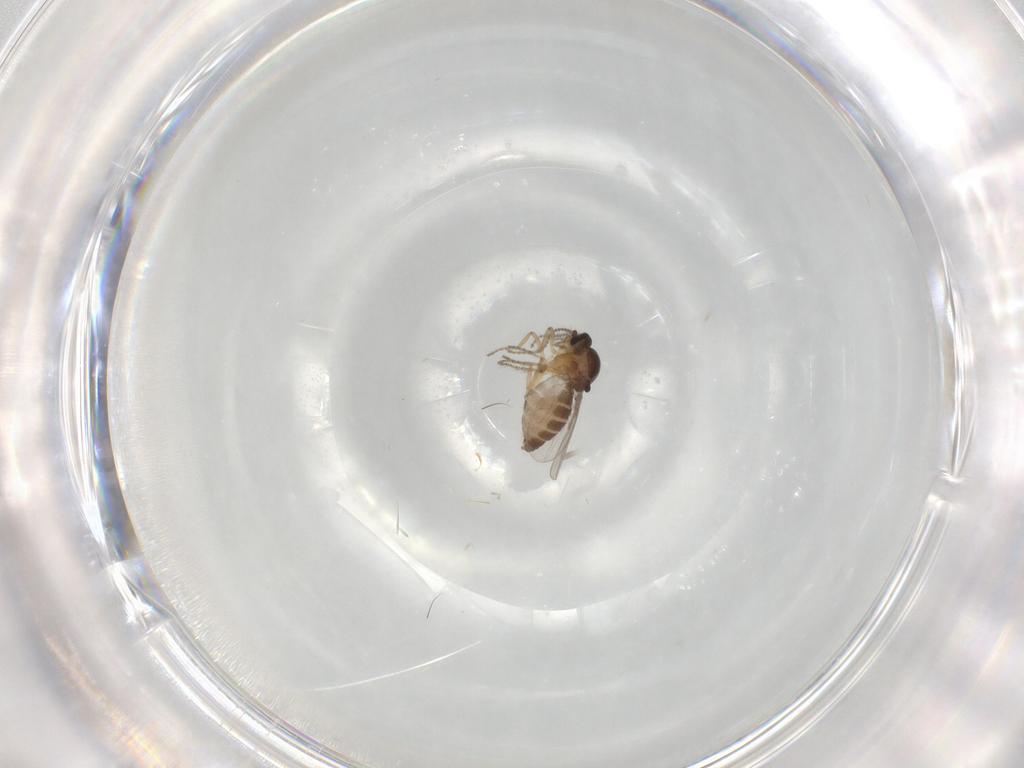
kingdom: Animalia
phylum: Arthropoda
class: Insecta
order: Diptera
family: Ceratopogonidae
